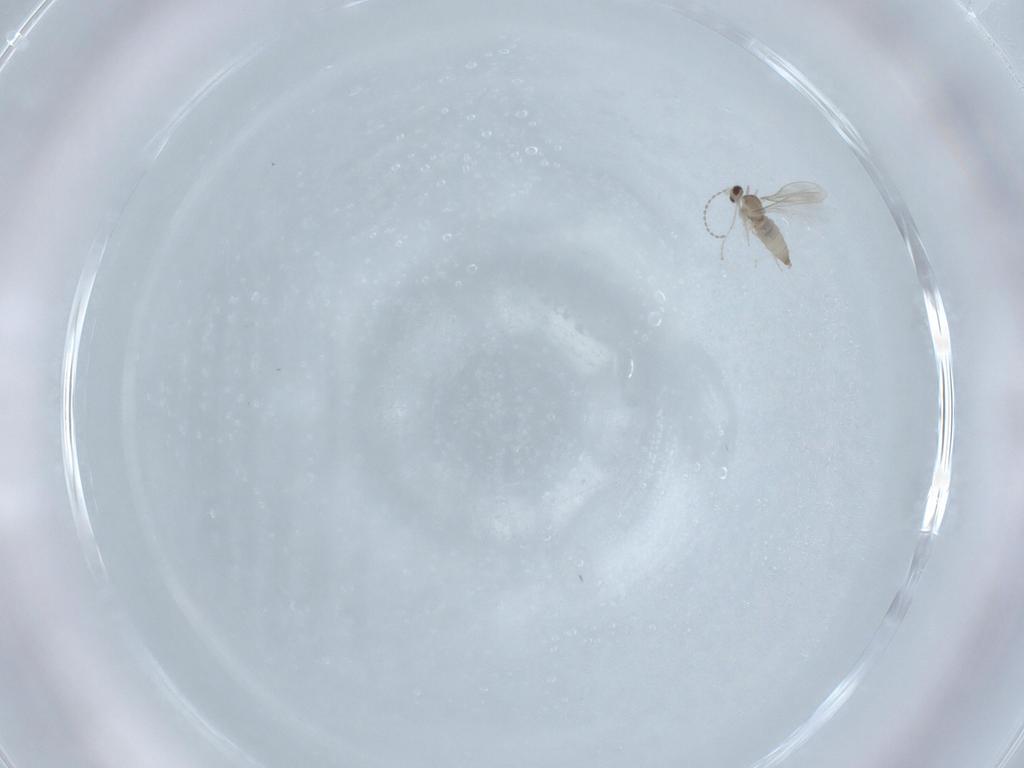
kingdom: Animalia
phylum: Arthropoda
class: Insecta
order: Diptera
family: Cecidomyiidae
